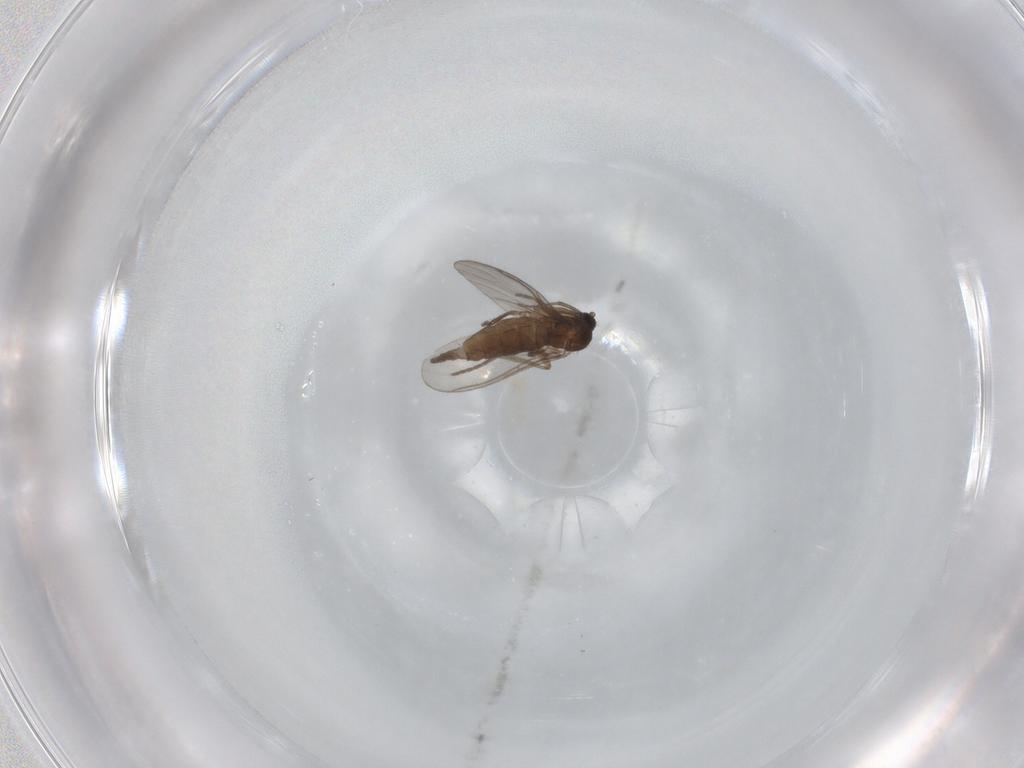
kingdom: Animalia
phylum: Arthropoda
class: Insecta
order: Diptera
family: Sciaridae
